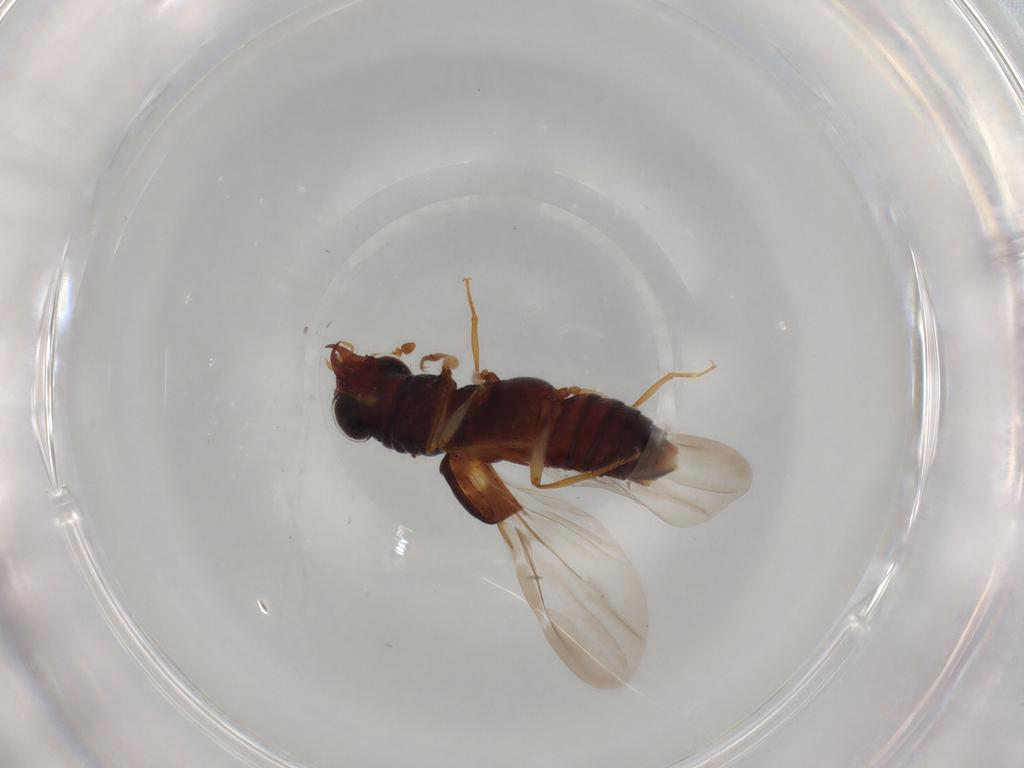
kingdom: Animalia
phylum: Arthropoda
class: Insecta
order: Coleoptera
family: Staphylinidae
